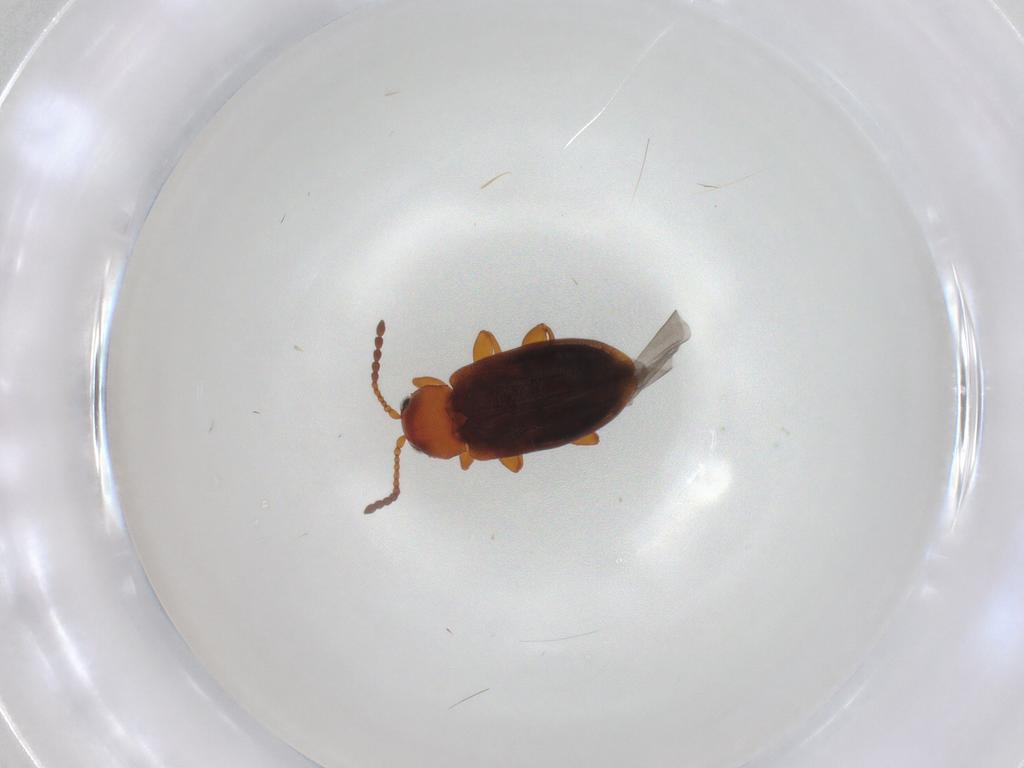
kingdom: Animalia
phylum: Arthropoda
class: Insecta
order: Coleoptera
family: Chrysomelidae
